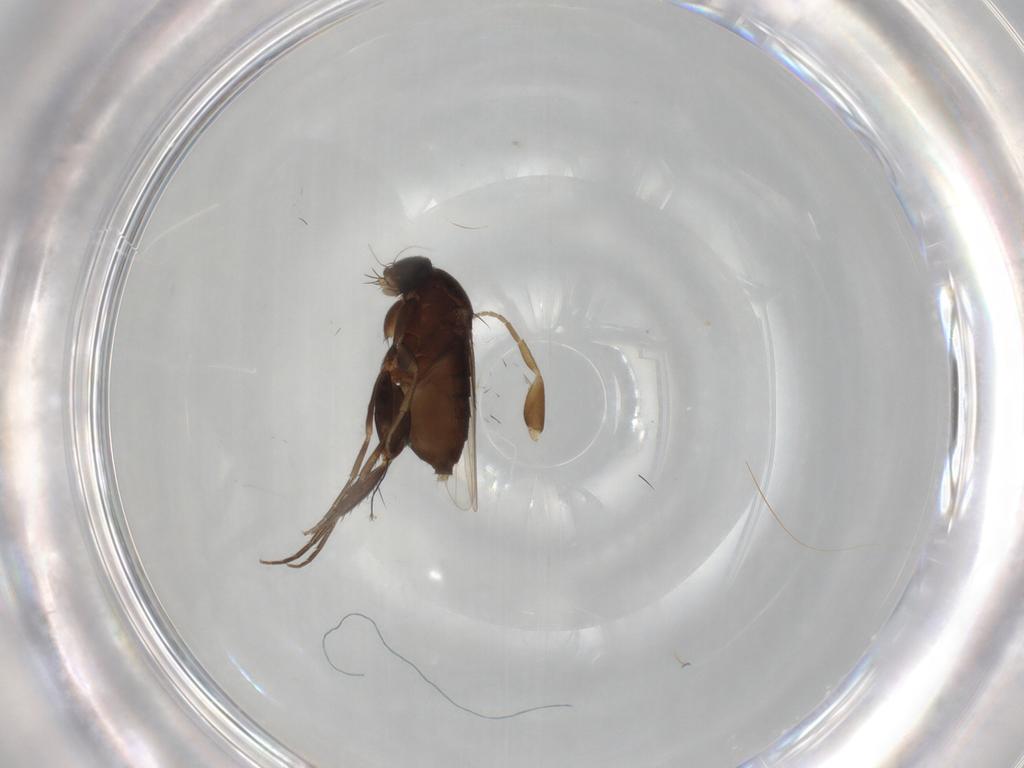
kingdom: Animalia
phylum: Arthropoda
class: Insecta
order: Diptera
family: Phoridae
